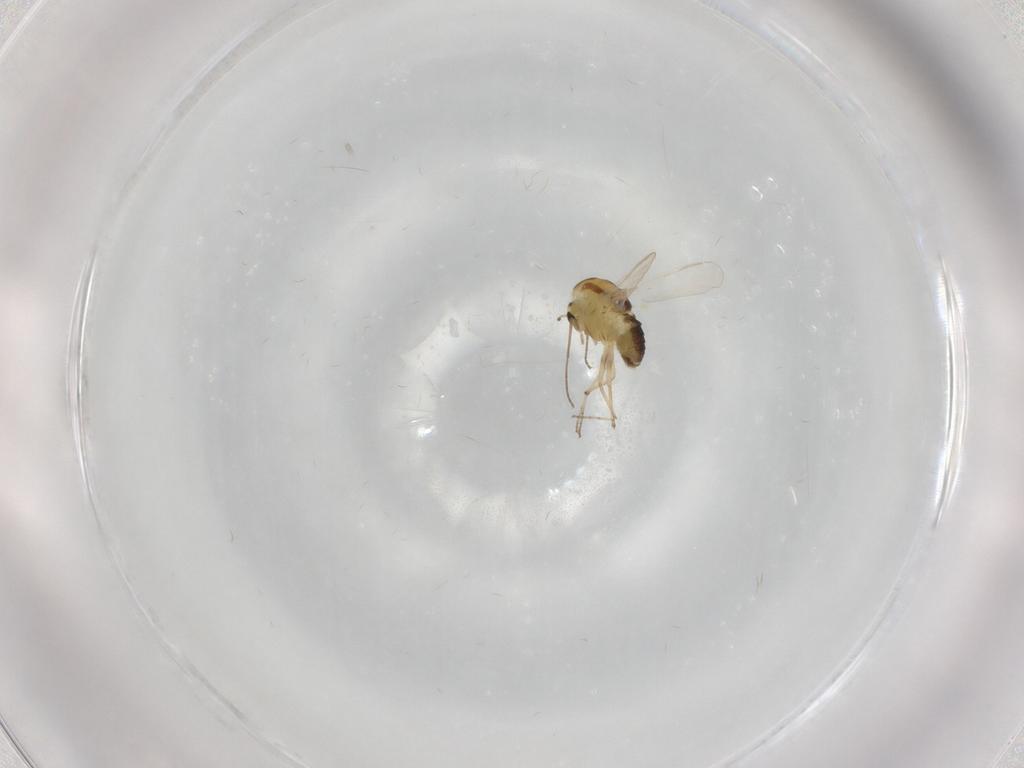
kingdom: Animalia
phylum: Arthropoda
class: Insecta
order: Diptera
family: Chironomidae
